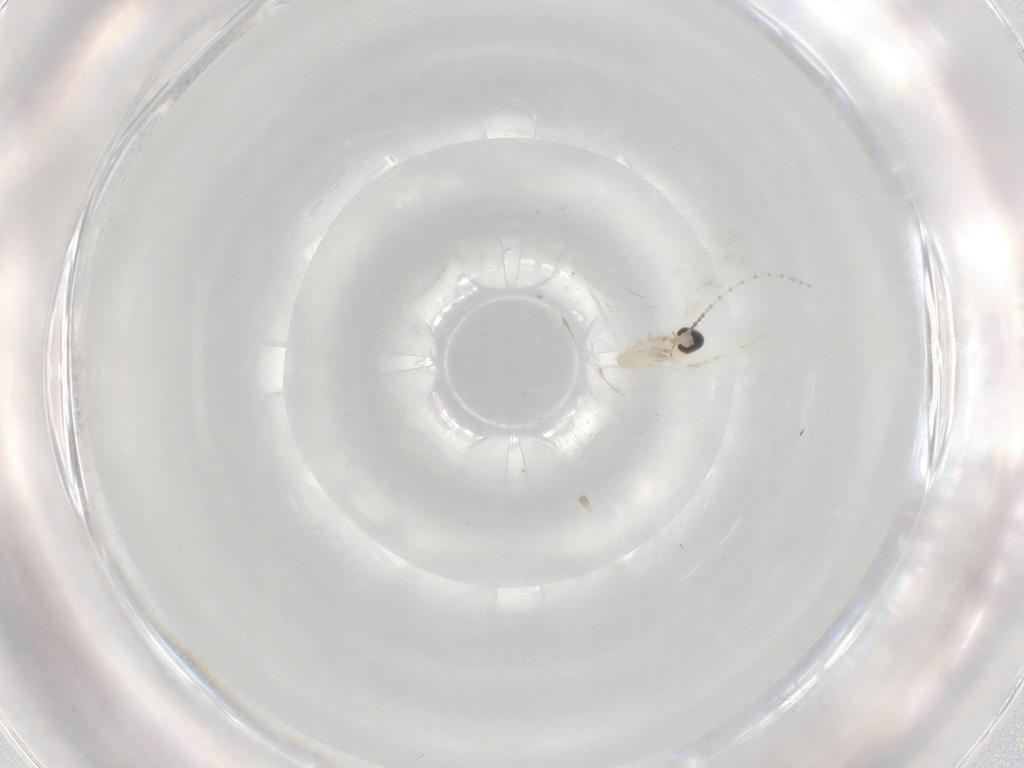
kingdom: Animalia
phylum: Arthropoda
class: Insecta
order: Diptera
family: Cecidomyiidae
